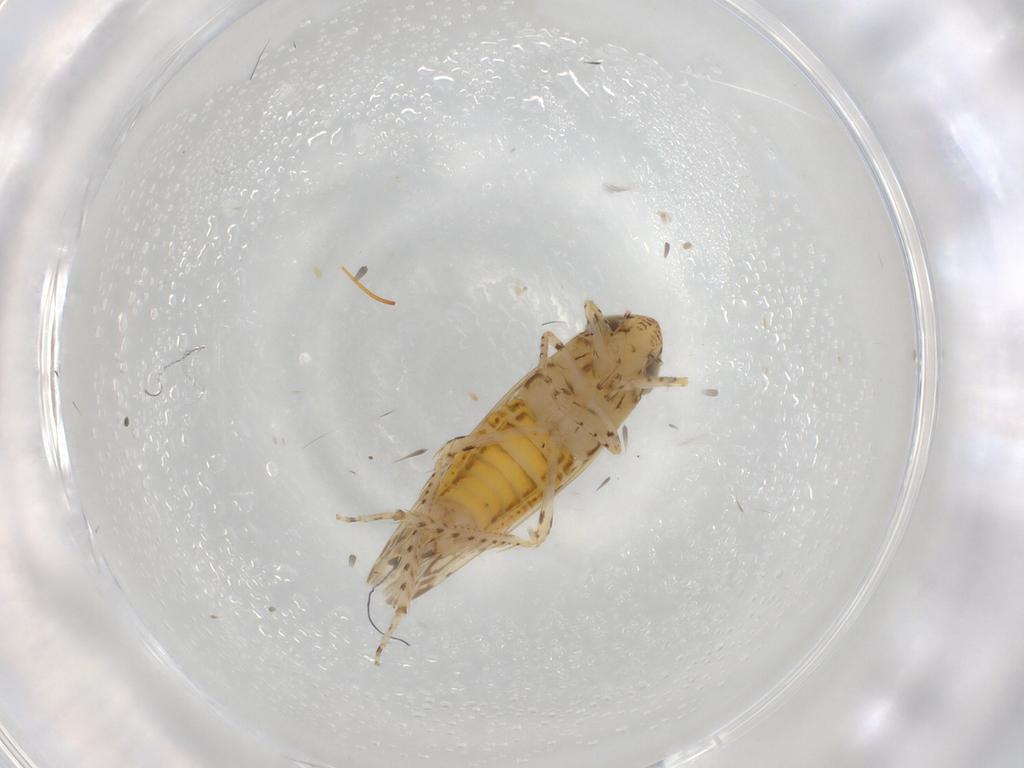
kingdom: Animalia
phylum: Arthropoda
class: Insecta
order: Hemiptera
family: Cicadellidae
